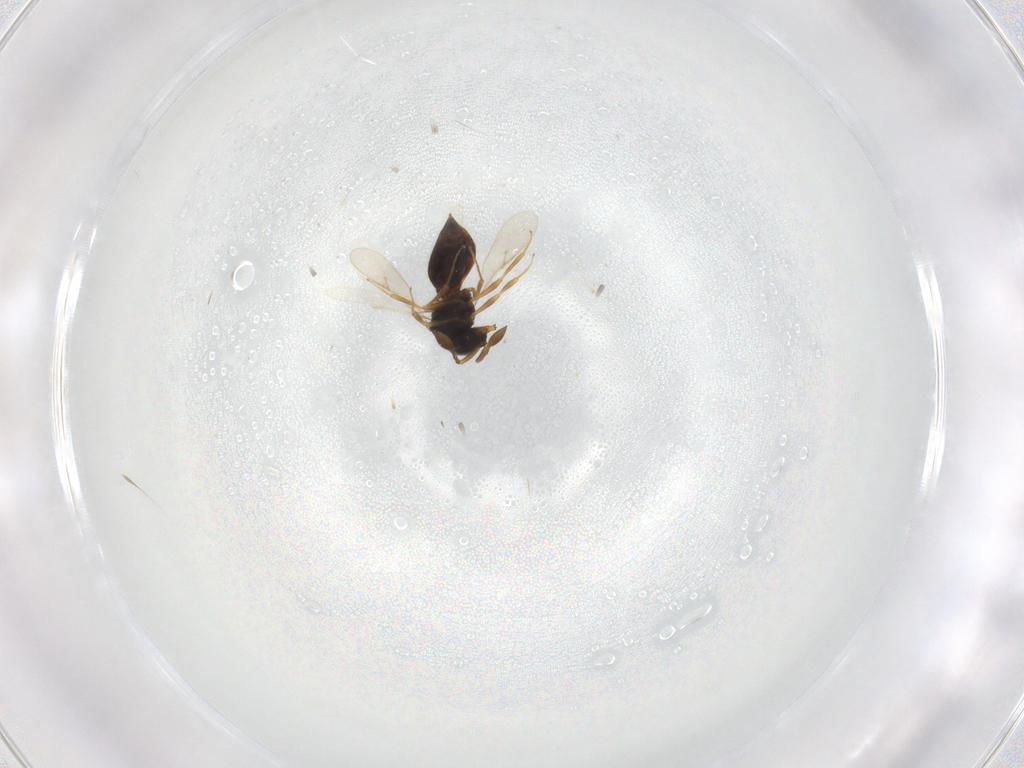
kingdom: Animalia
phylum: Arthropoda
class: Insecta
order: Hymenoptera
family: Scelionidae
